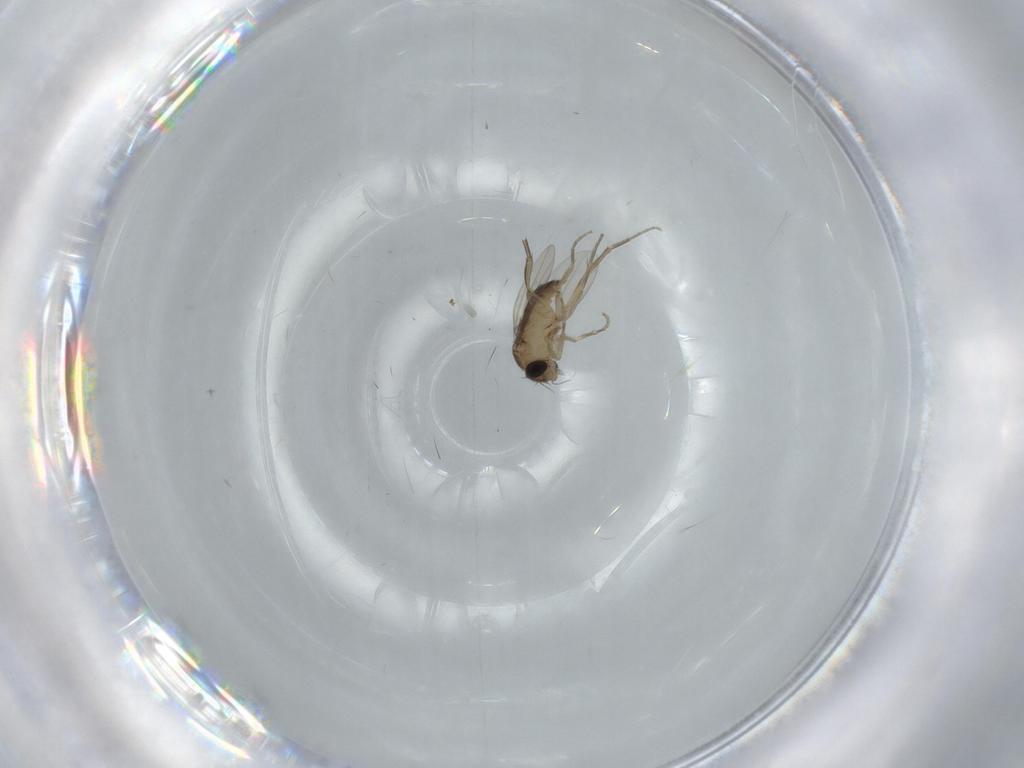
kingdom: Animalia
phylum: Arthropoda
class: Insecta
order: Diptera
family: Phoridae
